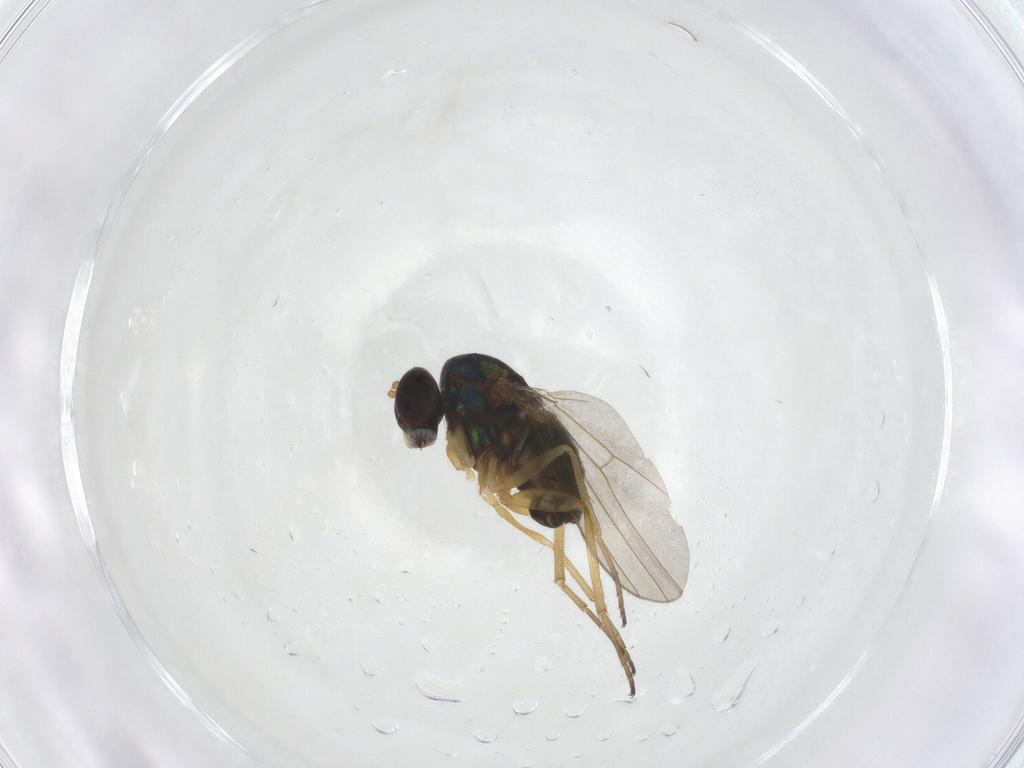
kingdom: Animalia
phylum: Arthropoda
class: Insecta
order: Diptera
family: Dolichopodidae
